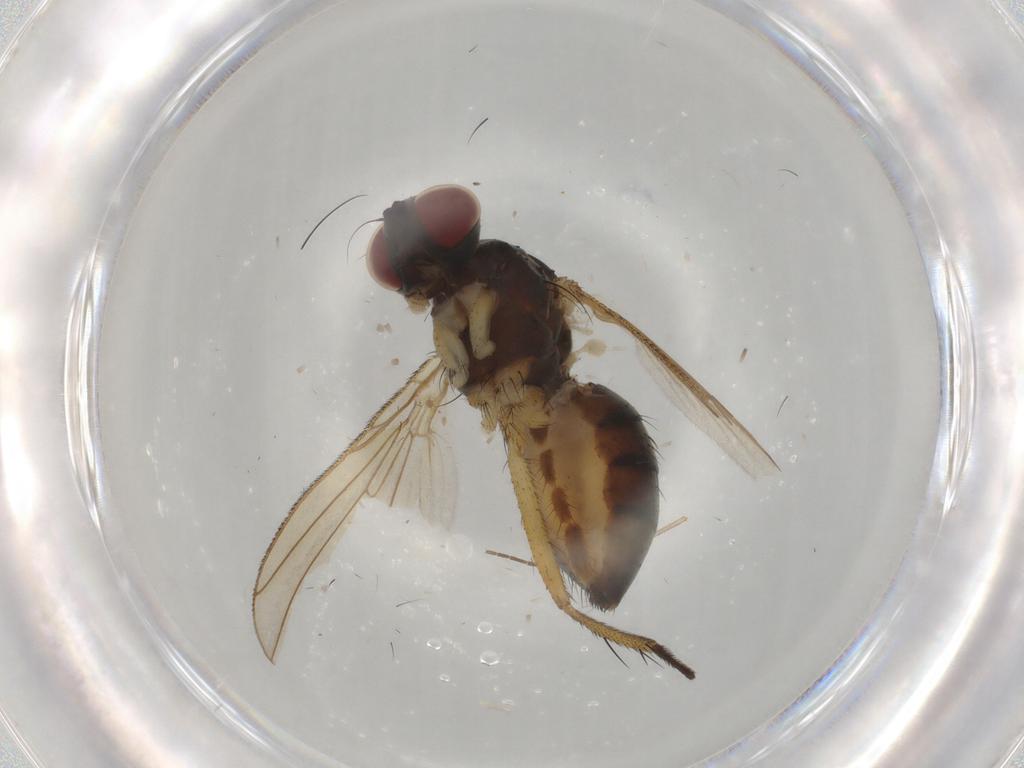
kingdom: Animalia
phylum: Arthropoda
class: Insecta
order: Diptera
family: Muscidae
